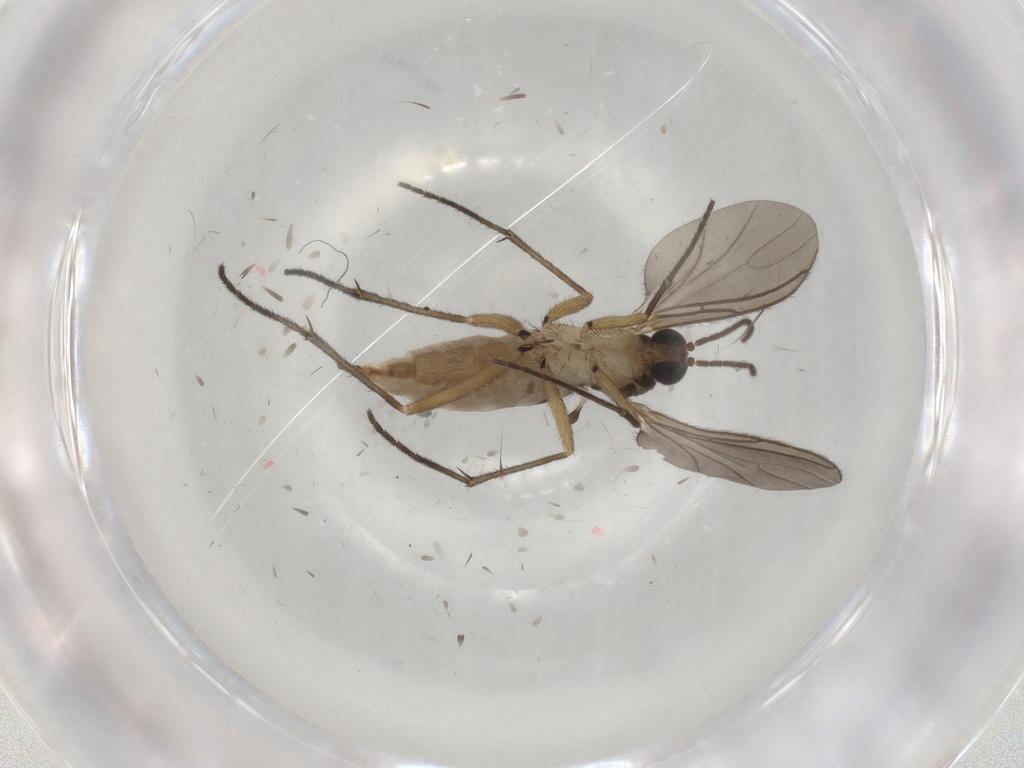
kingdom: Animalia
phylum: Arthropoda
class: Insecta
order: Diptera
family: Sciaridae
